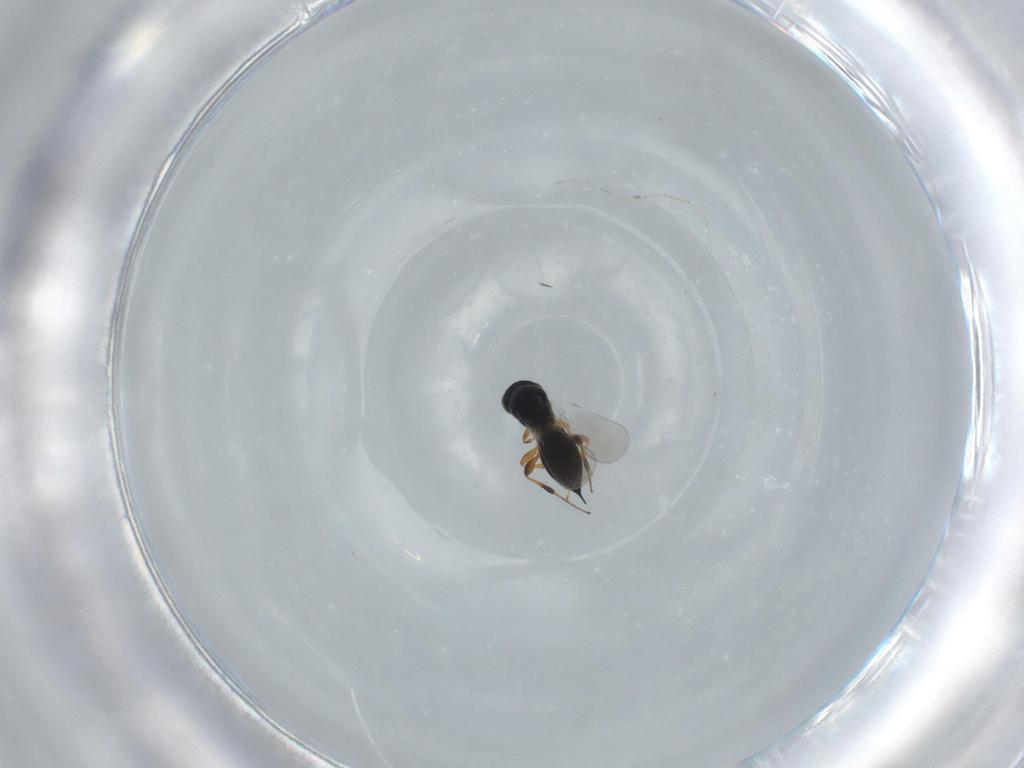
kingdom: Animalia
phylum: Arthropoda
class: Insecta
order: Hymenoptera
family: Platygastridae
